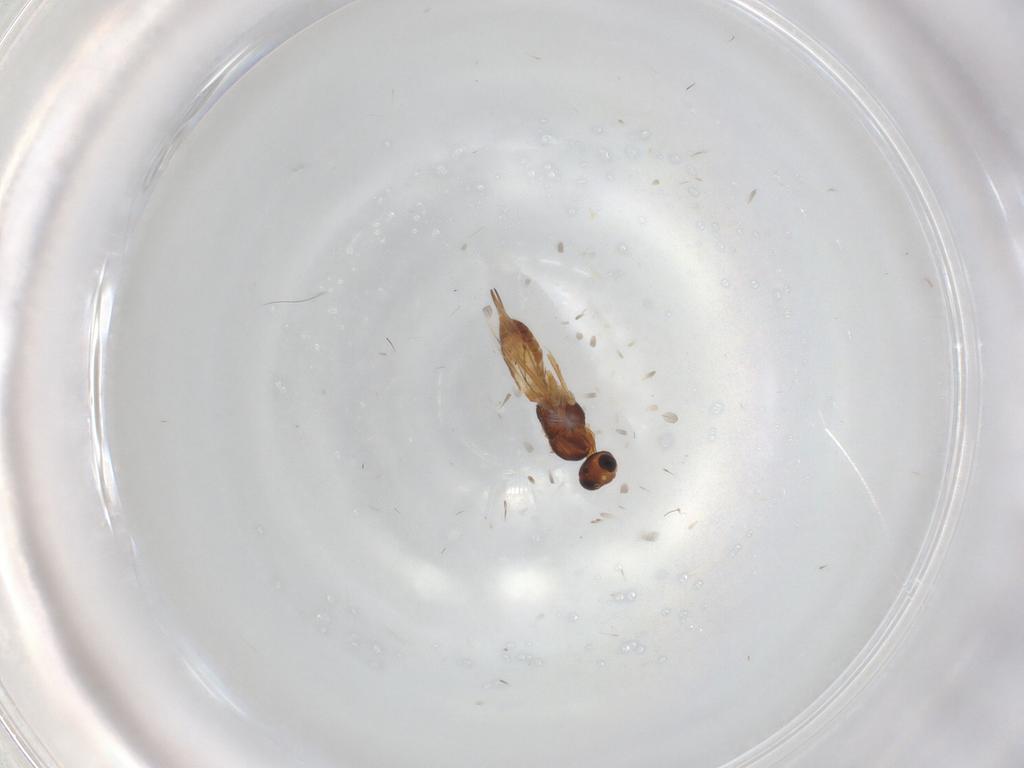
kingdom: Animalia
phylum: Arthropoda
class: Insecta
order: Hymenoptera
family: Braconidae
